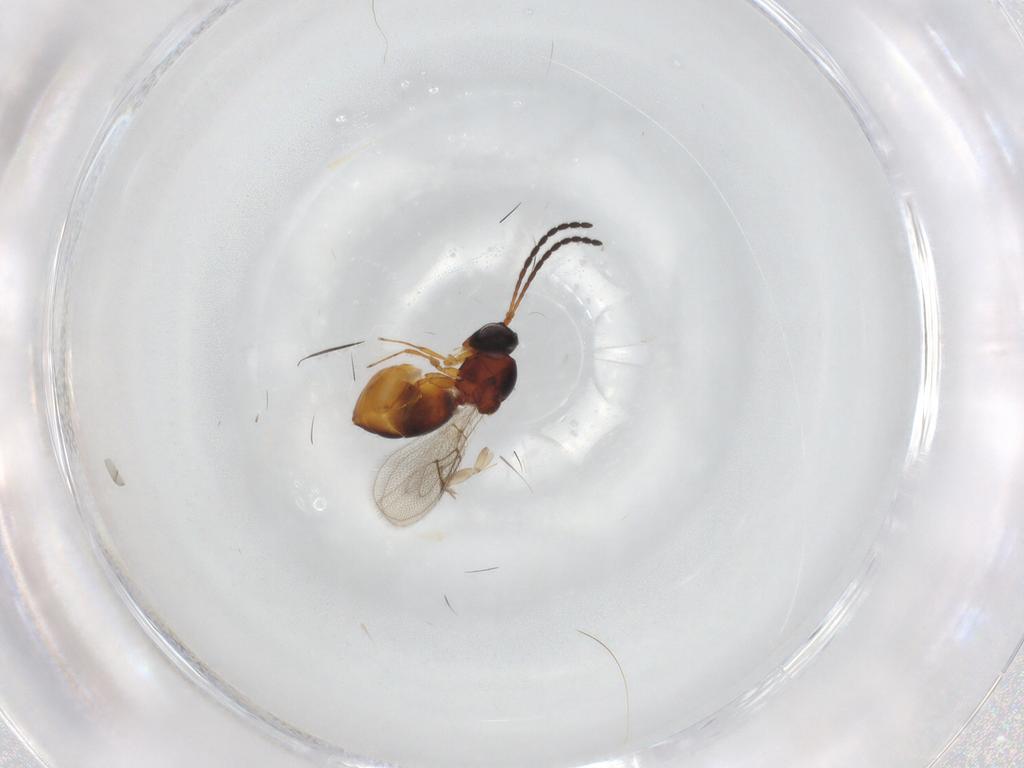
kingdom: Animalia
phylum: Arthropoda
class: Insecta
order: Hymenoptera
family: Figitidae
